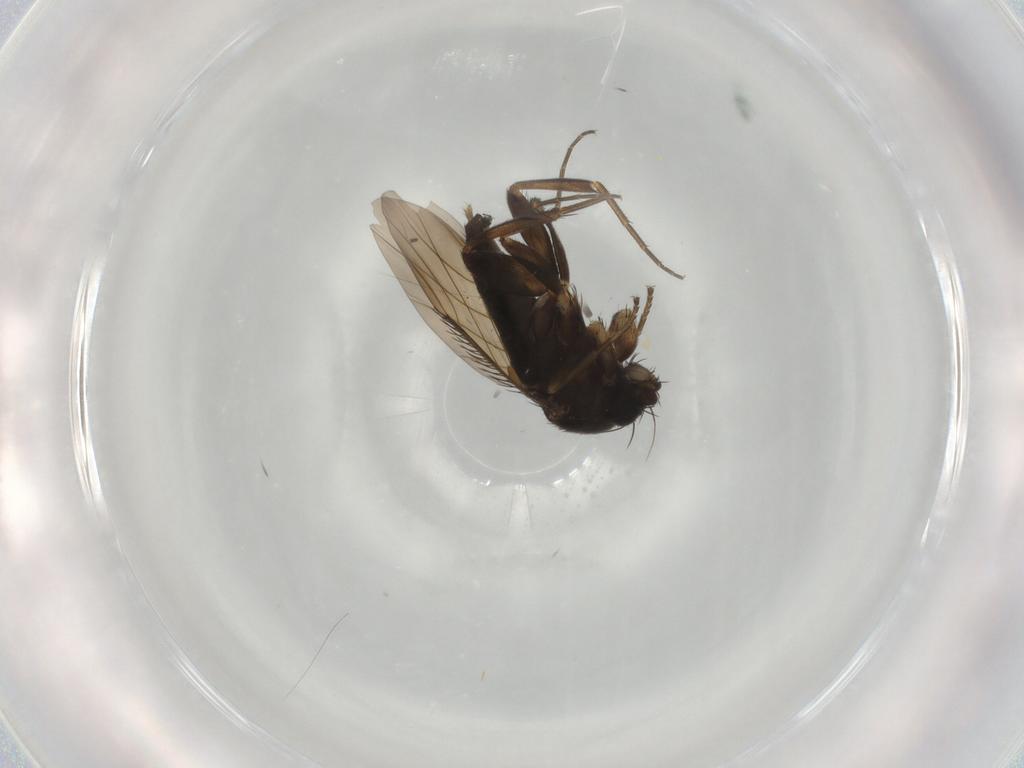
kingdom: Animalia
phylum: Arthropoda
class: Insecta
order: Diptera
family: Phoridae
